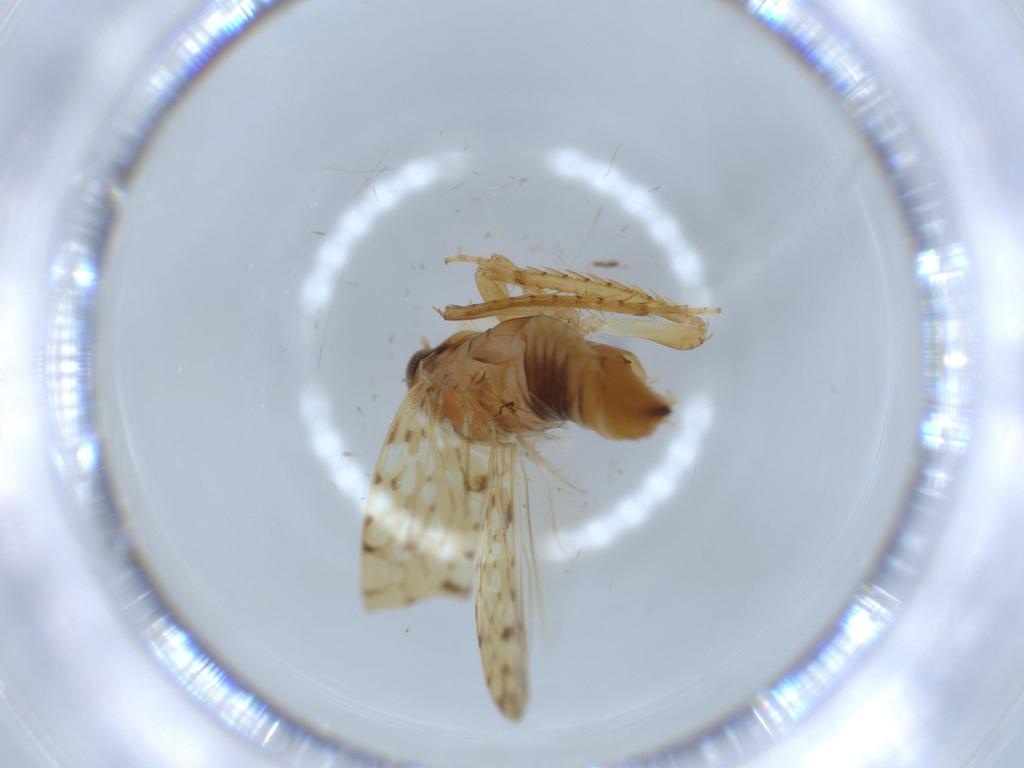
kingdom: Animalia
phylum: Arthropoda
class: Insecta
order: Hemiptera
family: Cicadellidae
